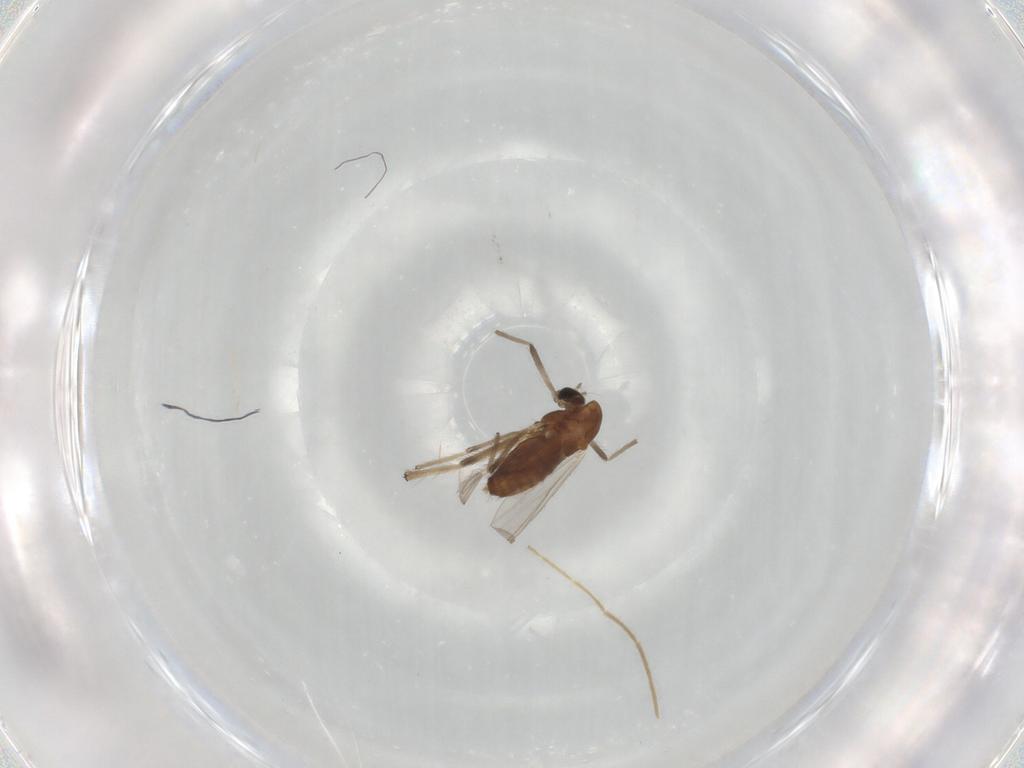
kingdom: Animalia
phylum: Arthropoda
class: Insecta
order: Diptera
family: Chironomidae
